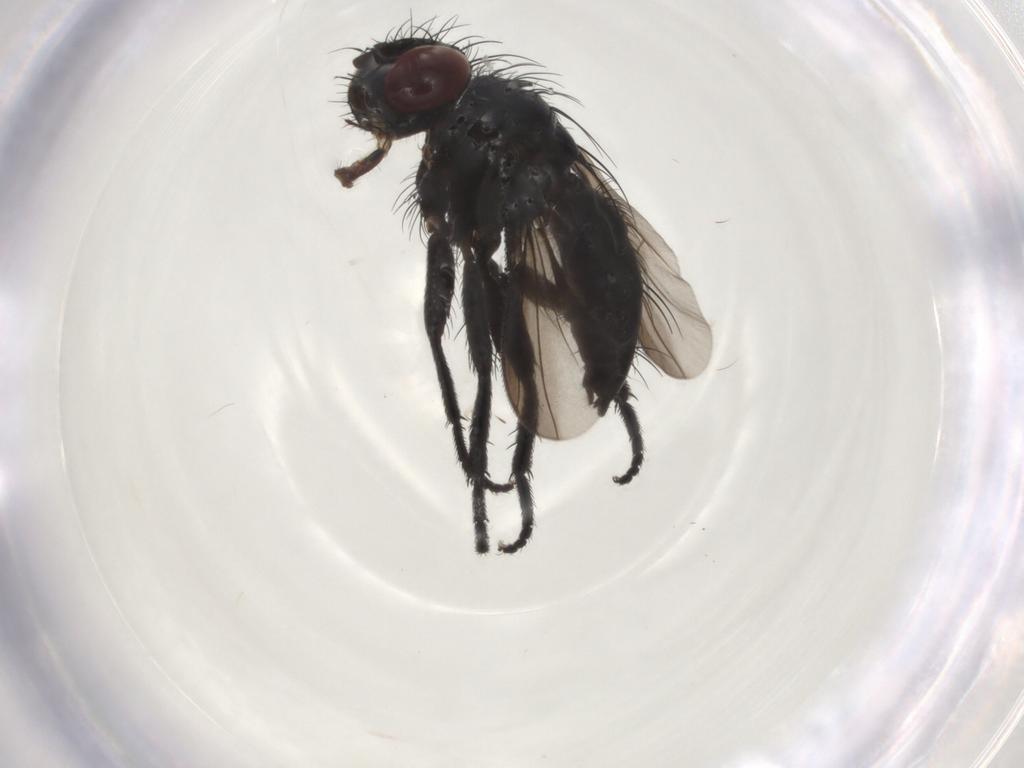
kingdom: Animalia
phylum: Arthropoda
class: Insecta
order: Diptera
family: Tachinidae
